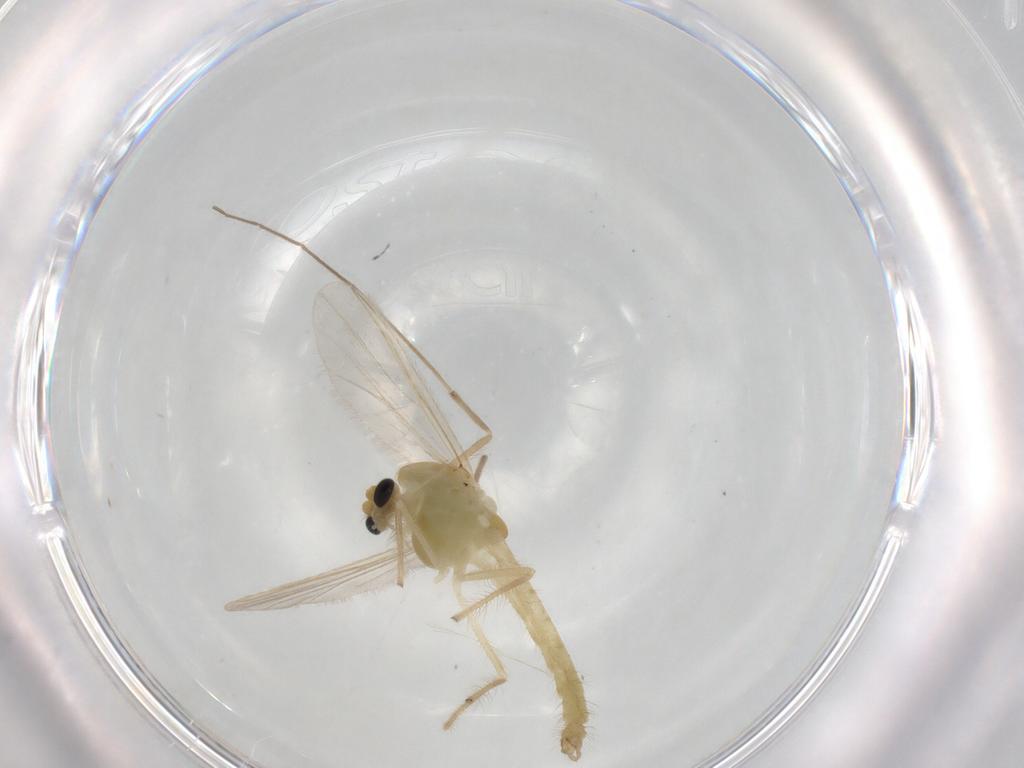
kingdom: Animalia
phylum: Arthropoda
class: Insecta
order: Diptera
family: Chironomidae
